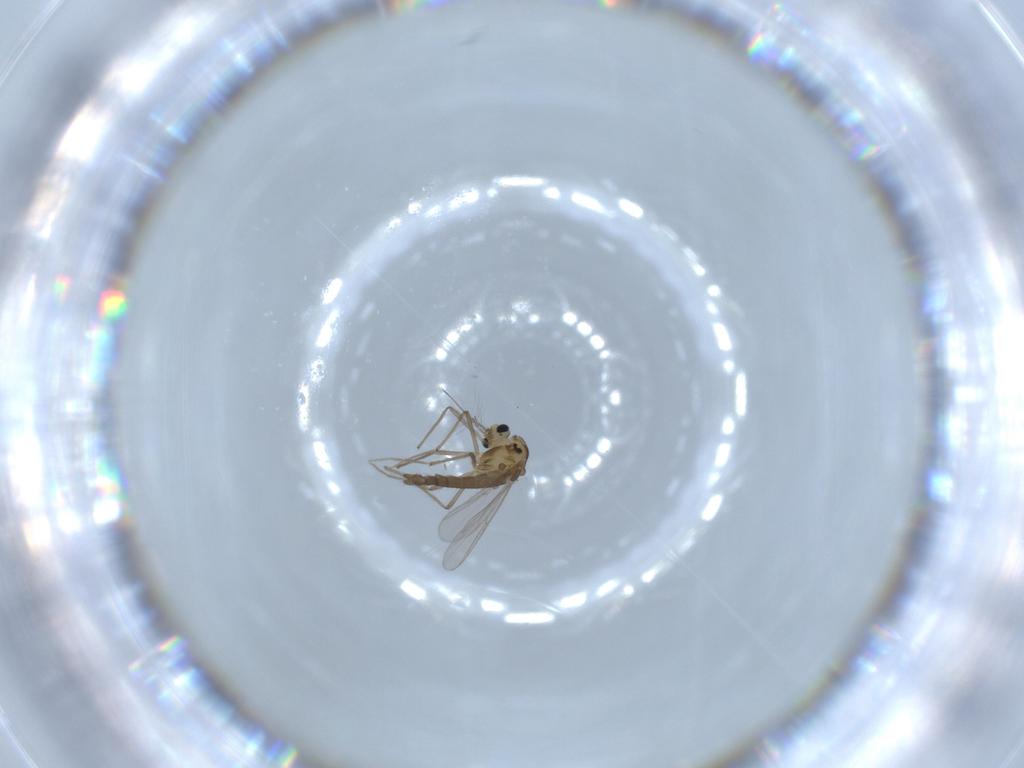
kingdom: Animalia
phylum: Arthropoda
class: Insecta
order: Diptera
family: Chironomidae
